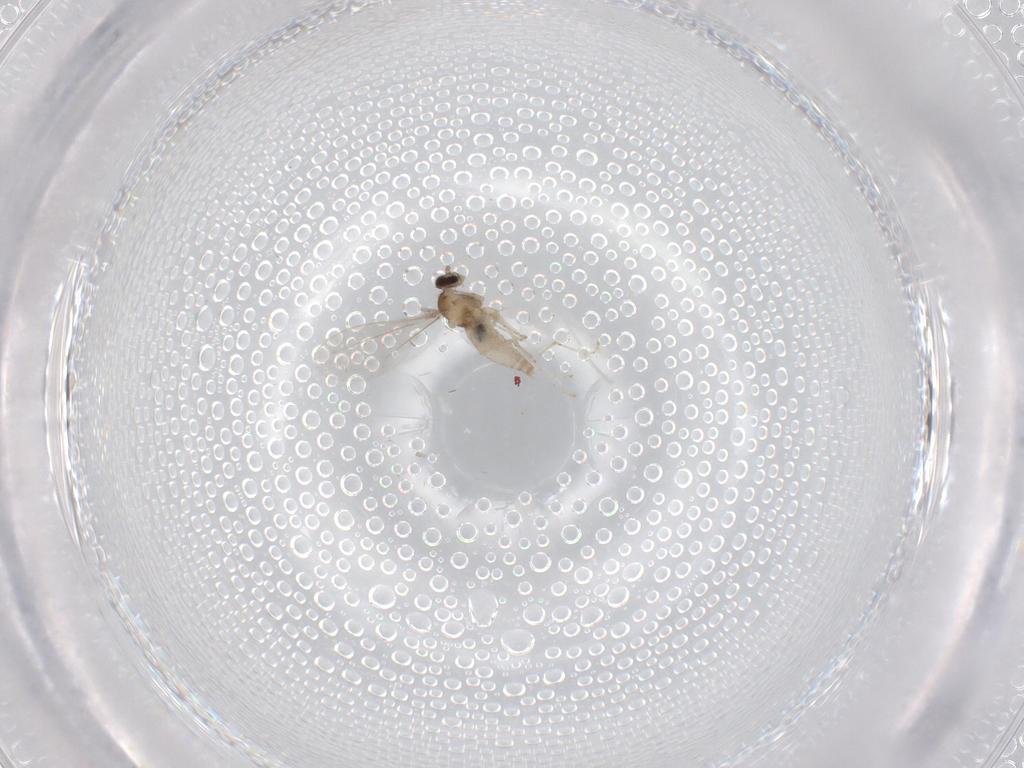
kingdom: Animalia
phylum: Arthropoda
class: Insecta
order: Diptera
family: Cecidomyiidae
